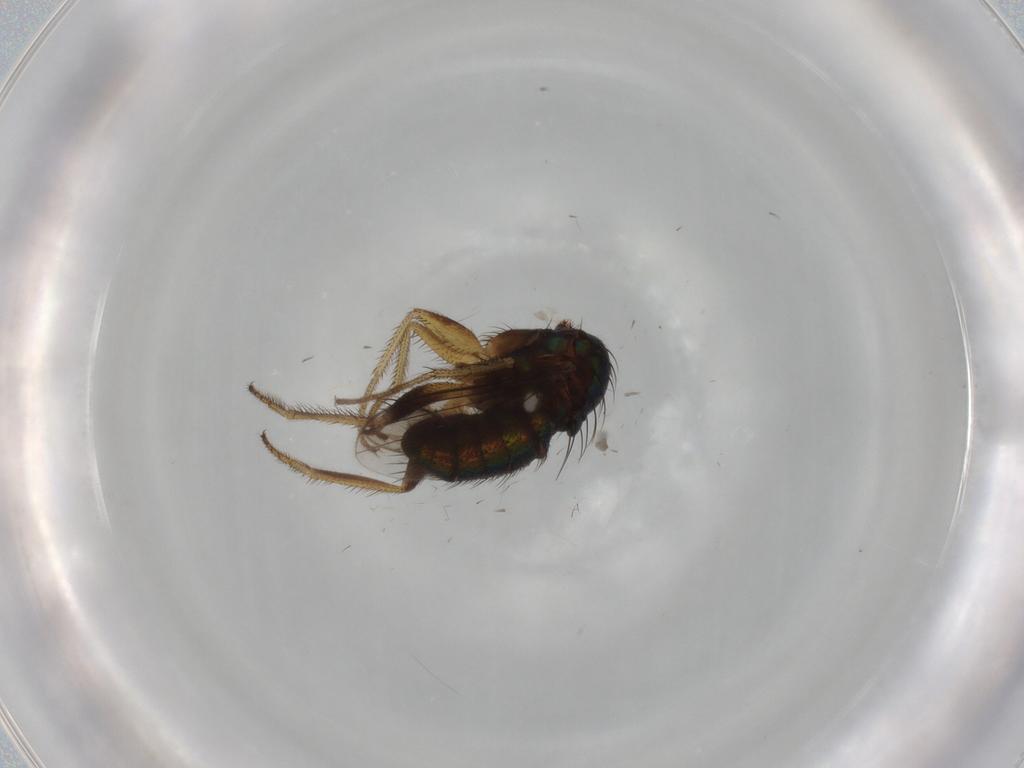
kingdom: Animalia
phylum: Arthropoda
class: Insecta
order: Diptera
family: Dolichopodidae
